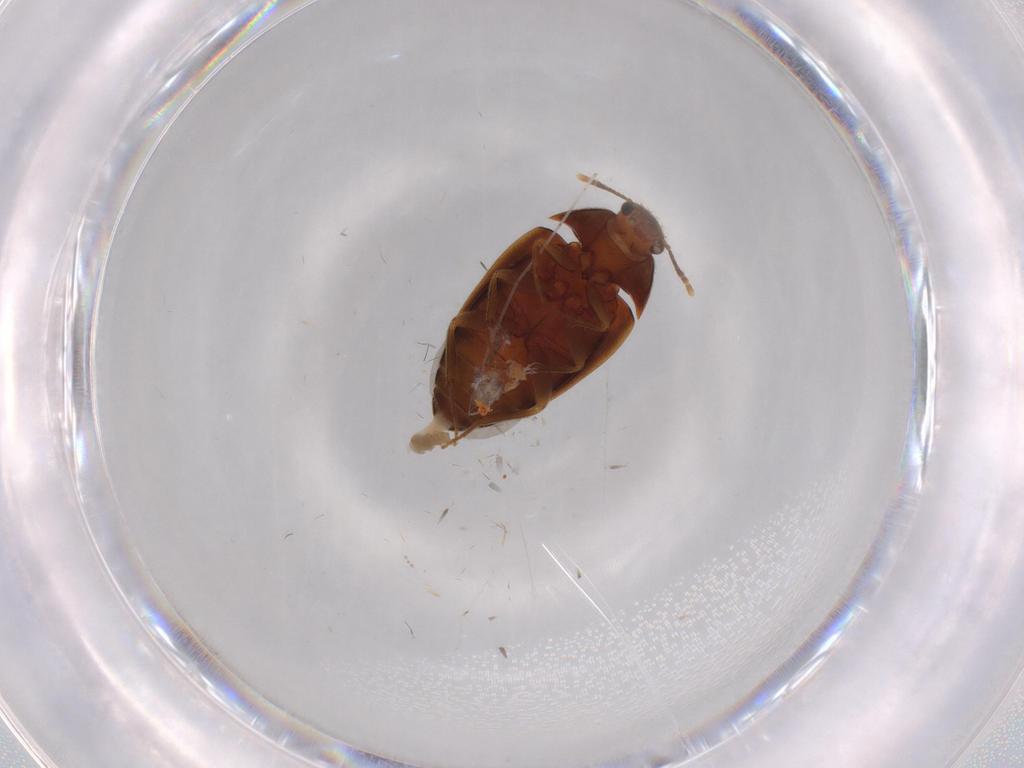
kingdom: Animalia
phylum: Arthropoda
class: Insecta
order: Coleoptera
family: Mycetophagidae
